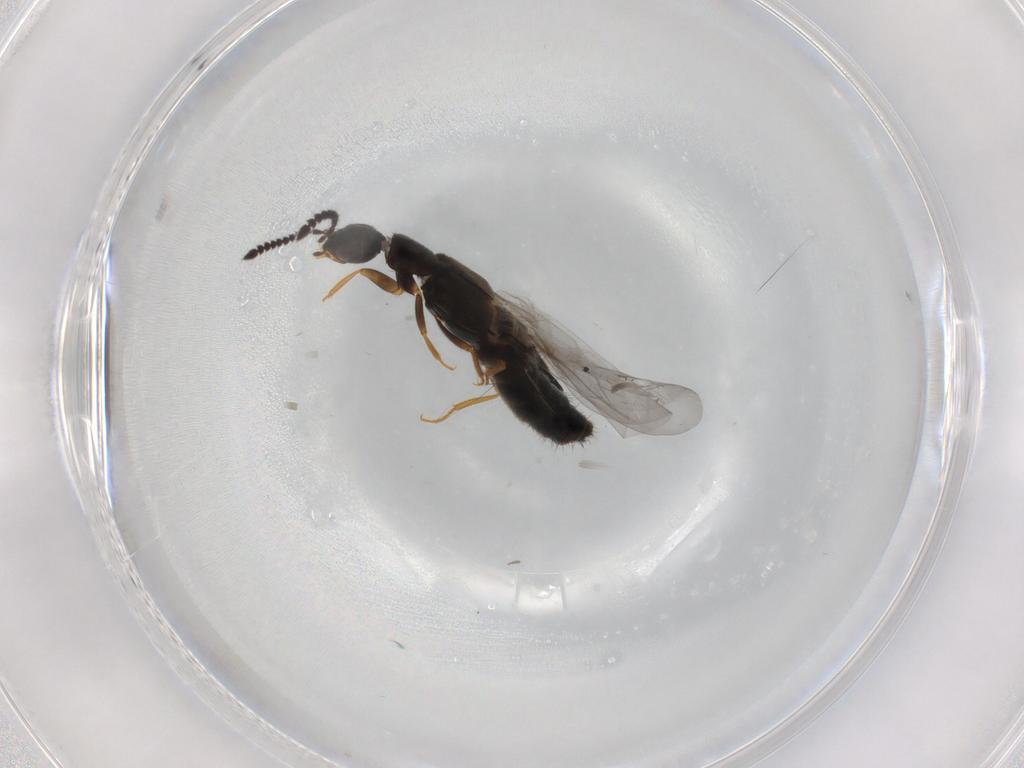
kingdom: Animalia
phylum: Arthropoda
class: Insecta
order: Coleoptera
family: Staphylinidae
